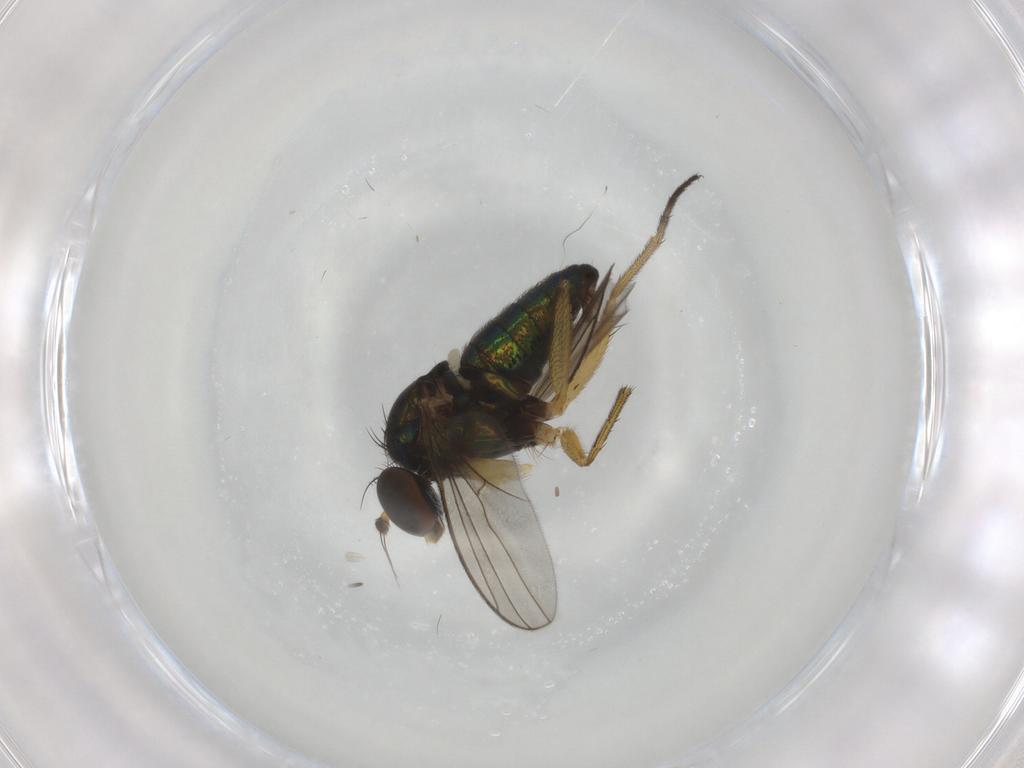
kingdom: Animalia
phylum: Arthropoda
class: Insecta
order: Diptera
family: Dolichopodidae
